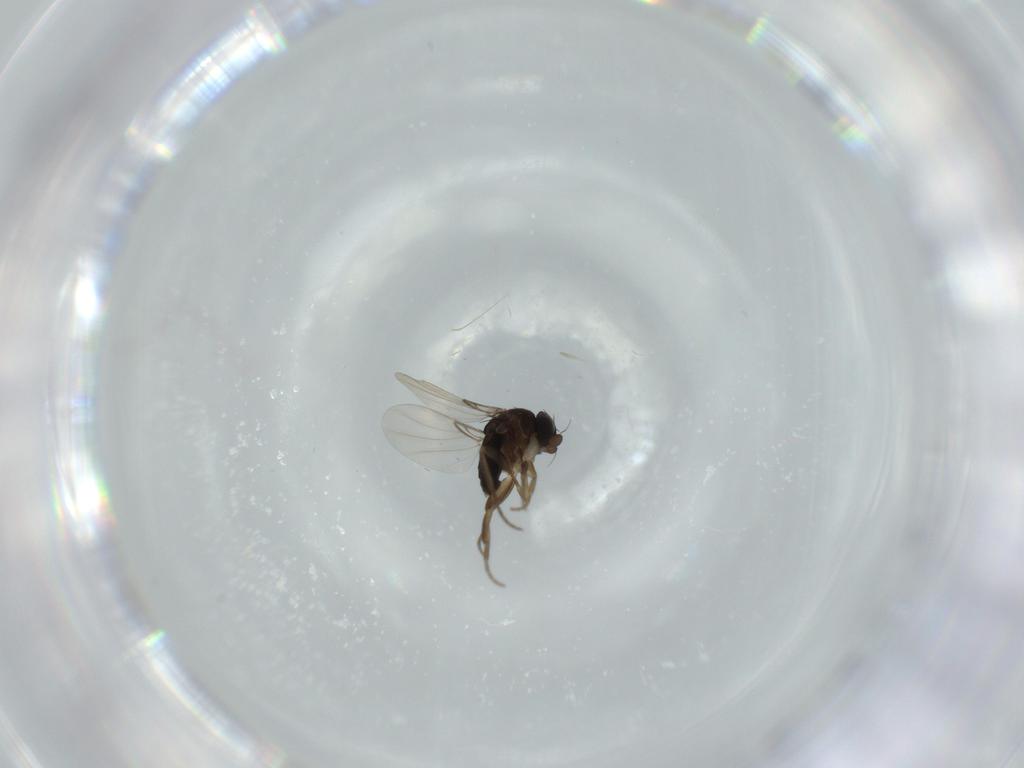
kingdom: Animalia
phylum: Arthropoda
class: Insecta
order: Diptera
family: Phoridae
